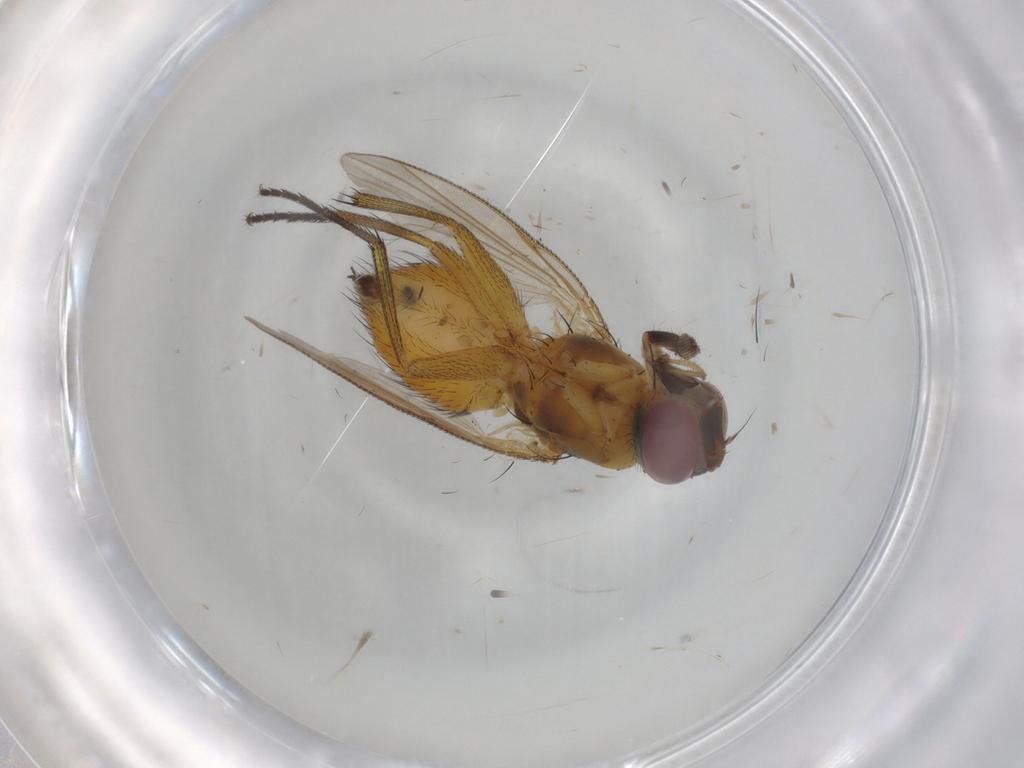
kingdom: Animalia
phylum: Arthropoda
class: Insecta
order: Diptera
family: Muscidae
